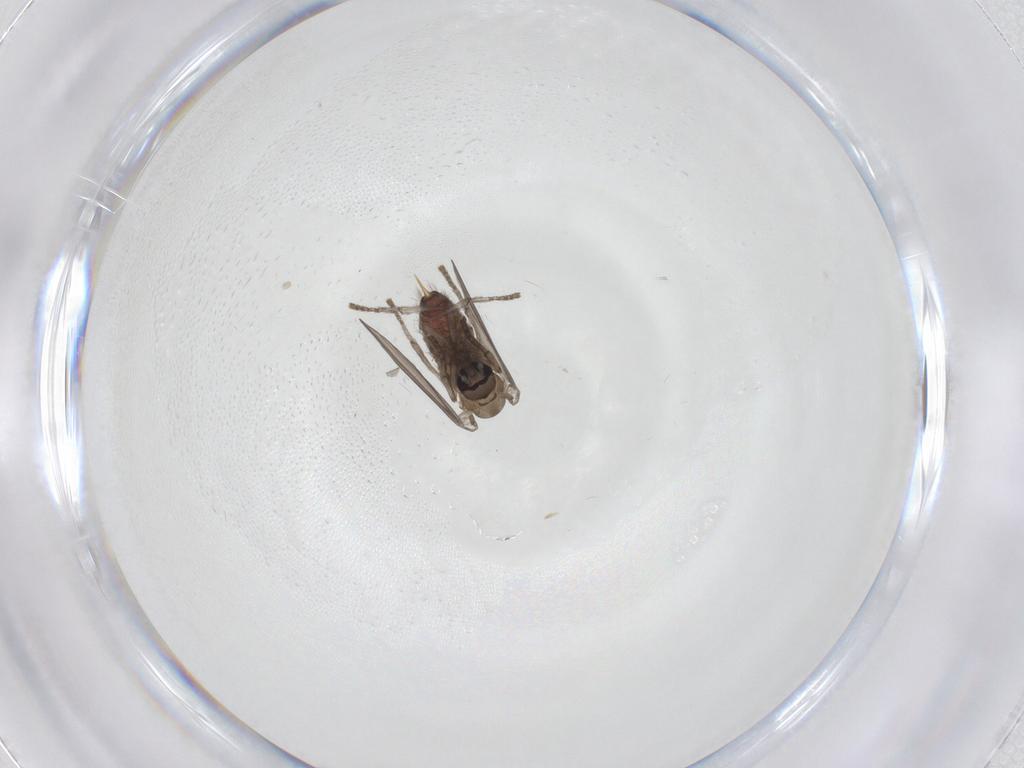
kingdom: Animalia
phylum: Arthropoda
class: Insecta
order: Diptera
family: Psychodidae
